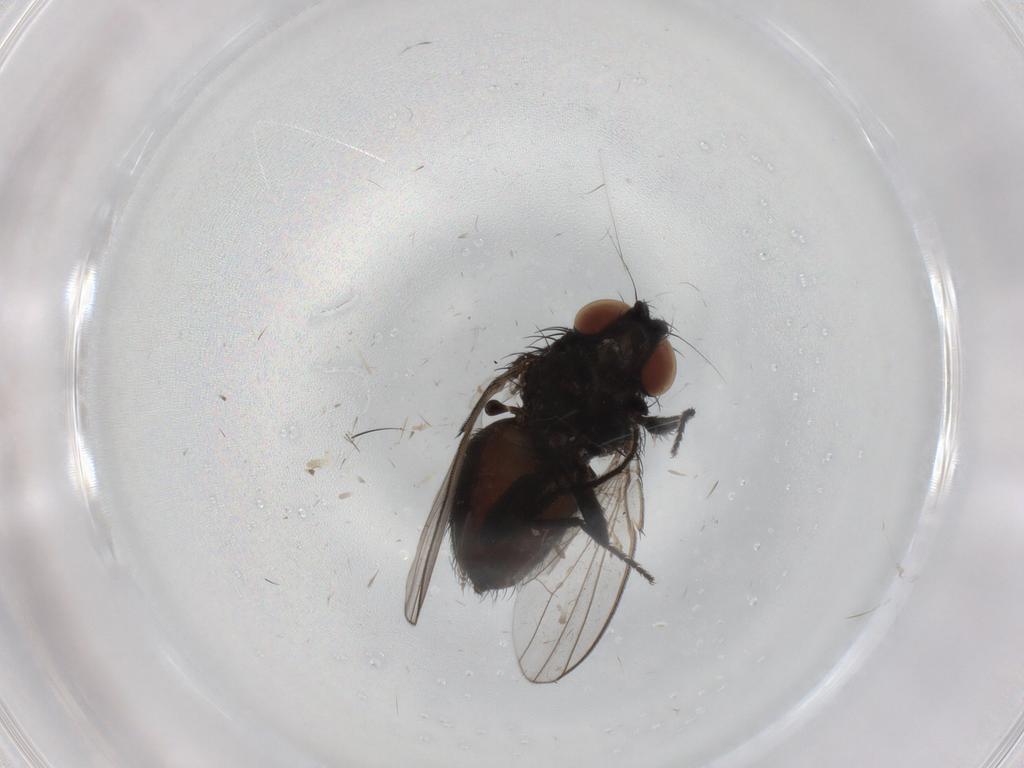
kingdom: Animalia
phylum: Arthropoda
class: Insecta
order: Diptera
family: Milichiidae
